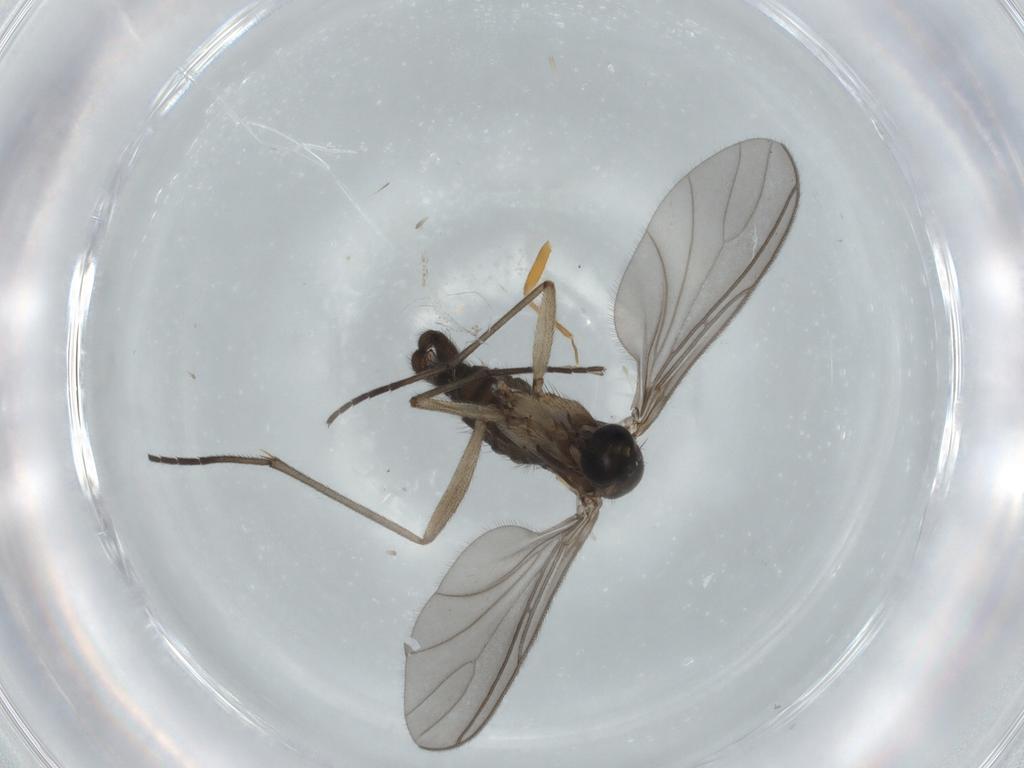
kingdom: Animalia
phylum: Arthropoda
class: Insecta
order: Diptera
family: Sciaridae
